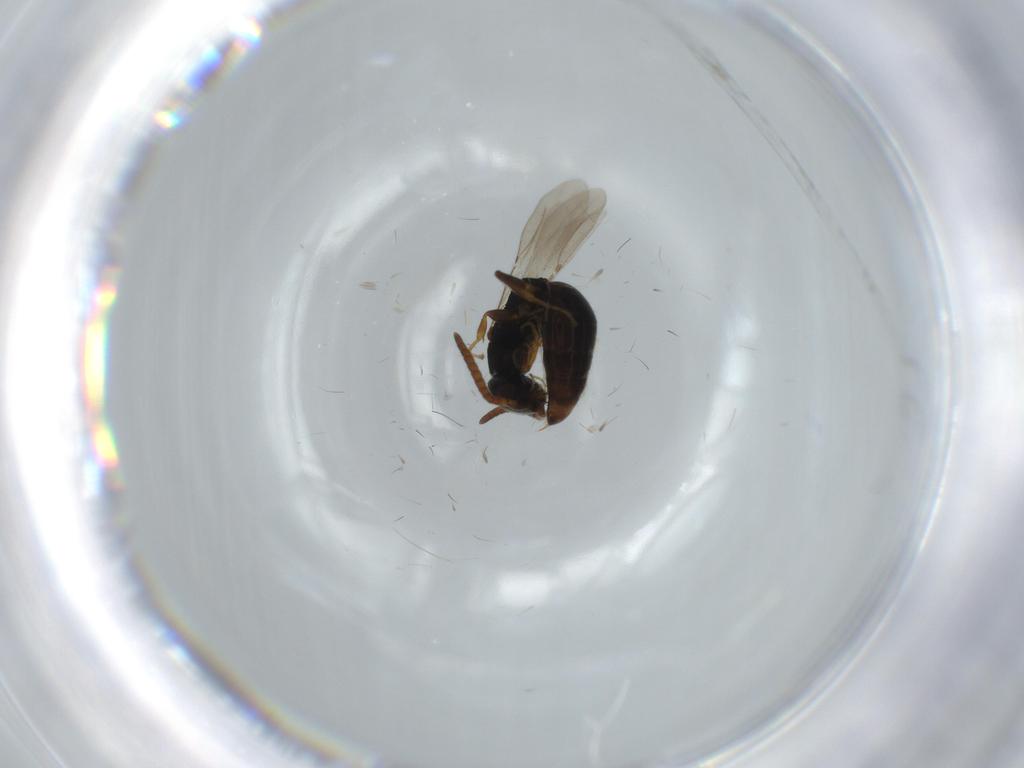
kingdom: Animalia
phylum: Arthropoda
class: Insecta
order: Hymenoptera
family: Bethylidae
